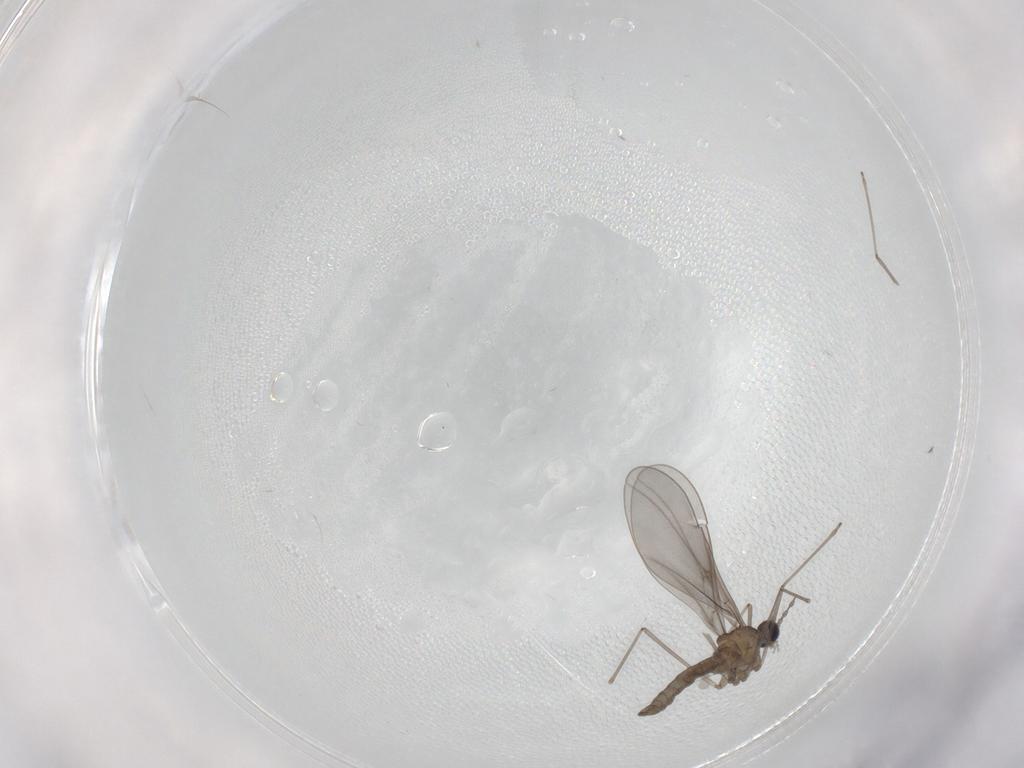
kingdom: Animalia
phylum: Arthropoda
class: Insecta
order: Diptera
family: Cecidomyiidae
